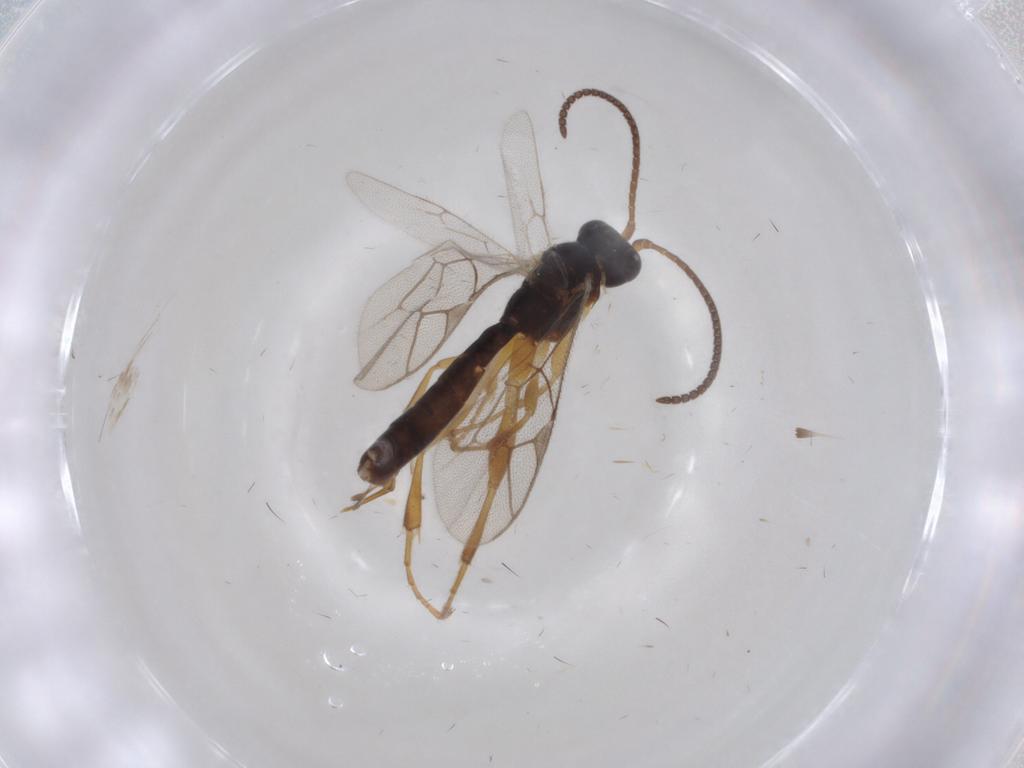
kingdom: Animalia
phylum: Arthropoda
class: Insecta
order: Hymenoptera
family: Ichneumonidae
